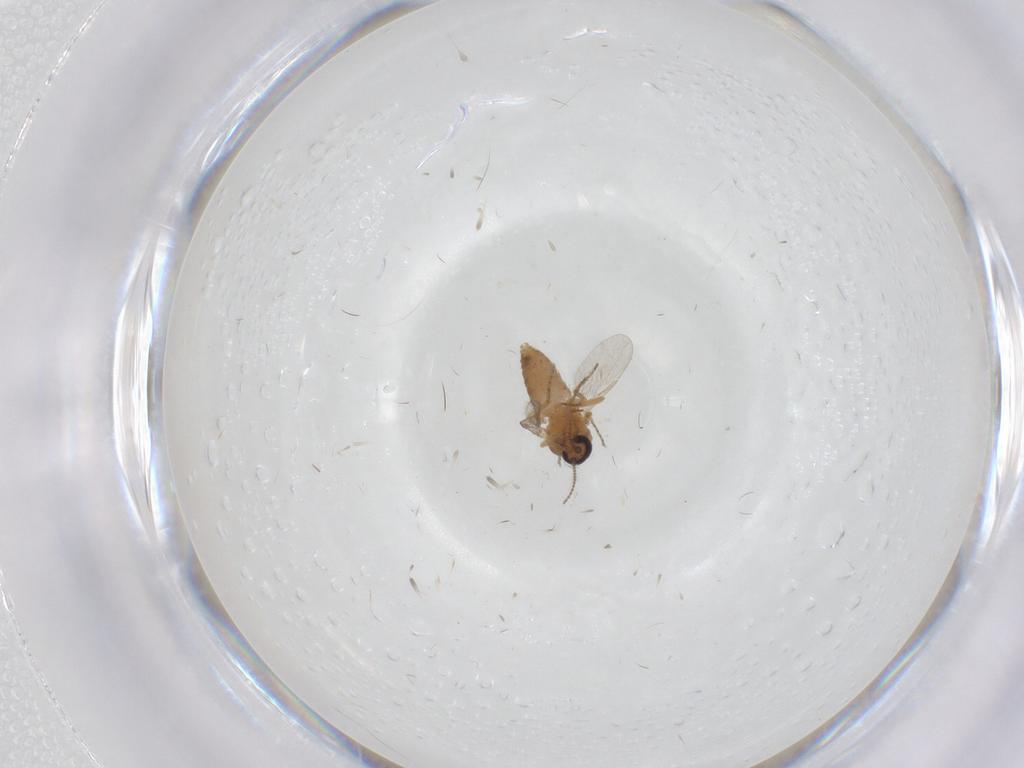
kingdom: Animalia
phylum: Arthropoda
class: Insecta
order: Diptera
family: Ceratopogonidae
